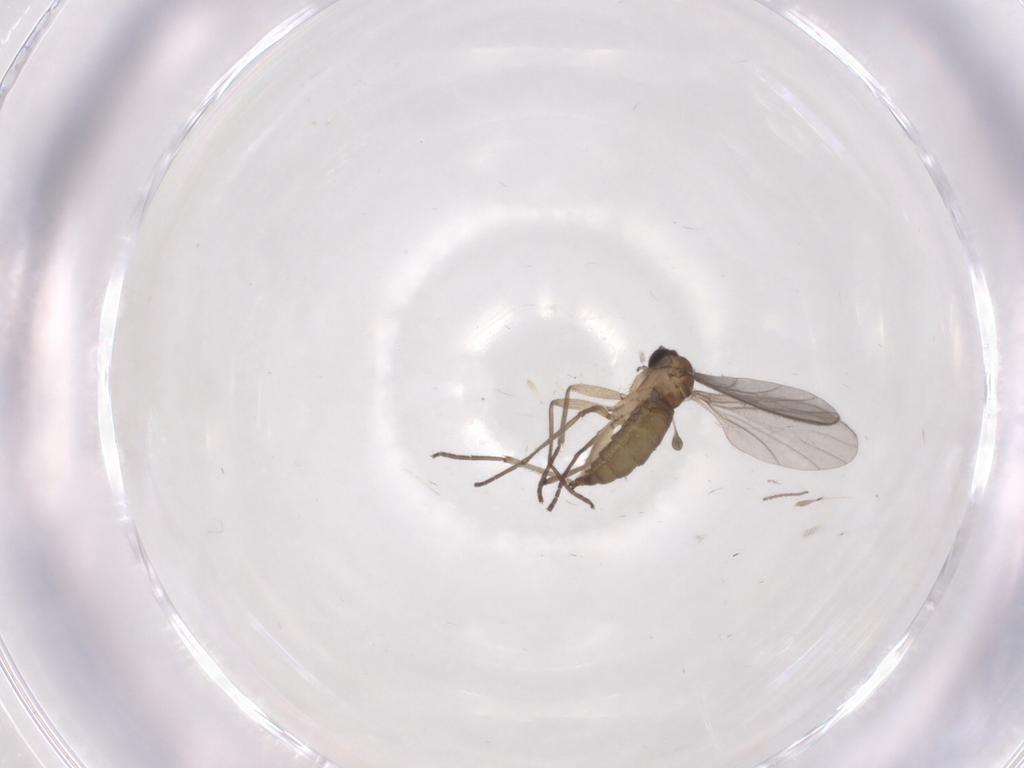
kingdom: Animalia
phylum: Arthropoda
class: Insecta
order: Diptera
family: Sciaridae
